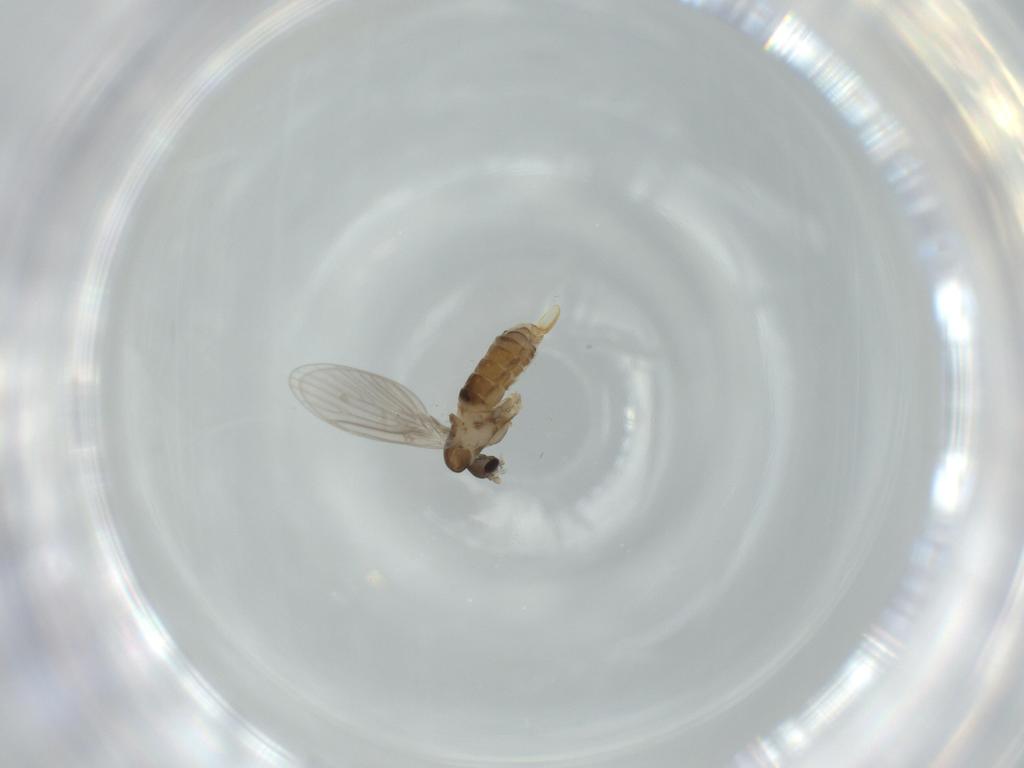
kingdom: Animalia
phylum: Arthropoda
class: Insecta
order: Diptera
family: Psychodidae
